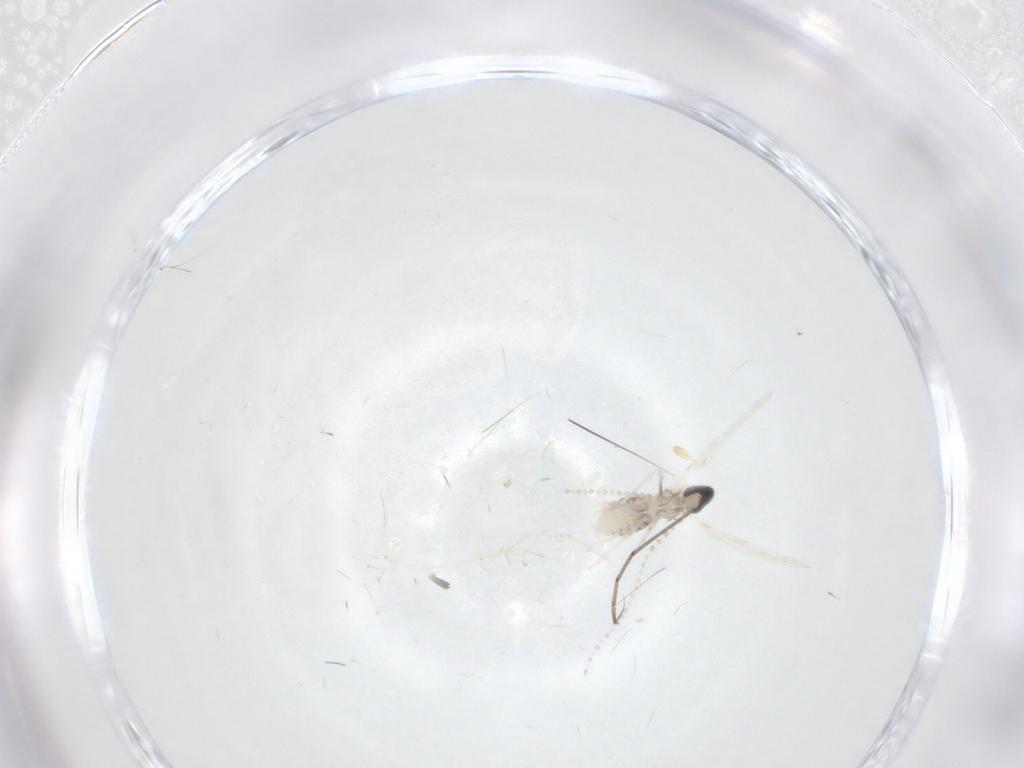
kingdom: Animalia
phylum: Arthropoda
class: Insecta
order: Diptera
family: Cecidomyiidae
